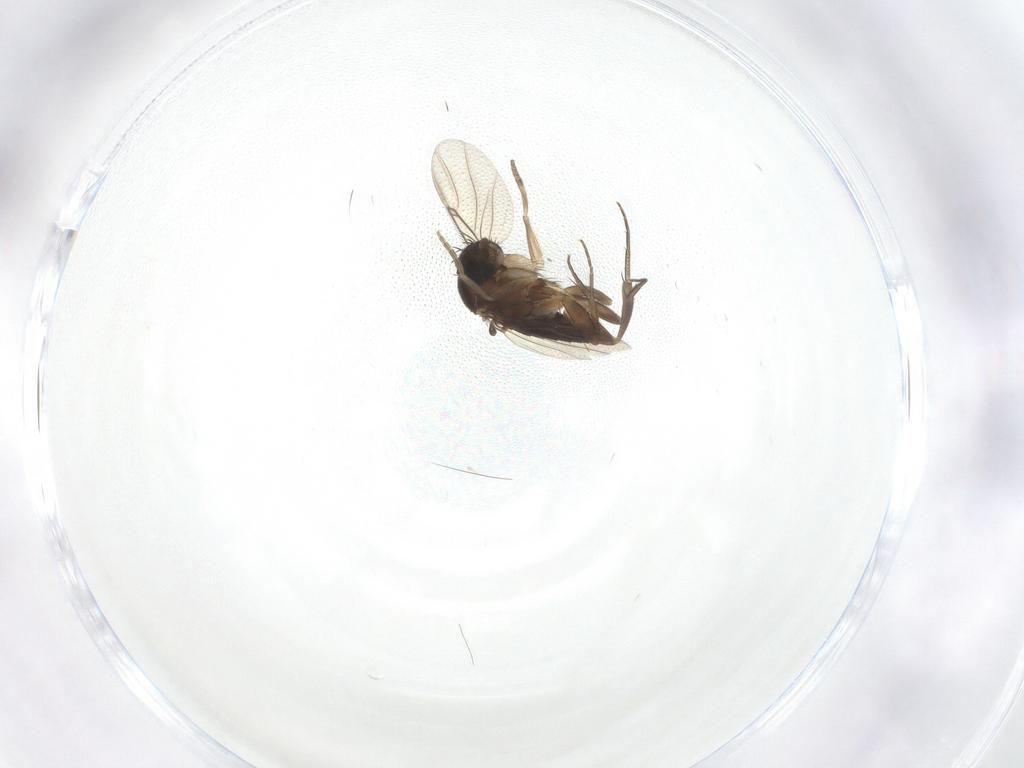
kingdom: Animalia
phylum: Arthropoda
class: Insecta
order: Diptera
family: Phoridae
